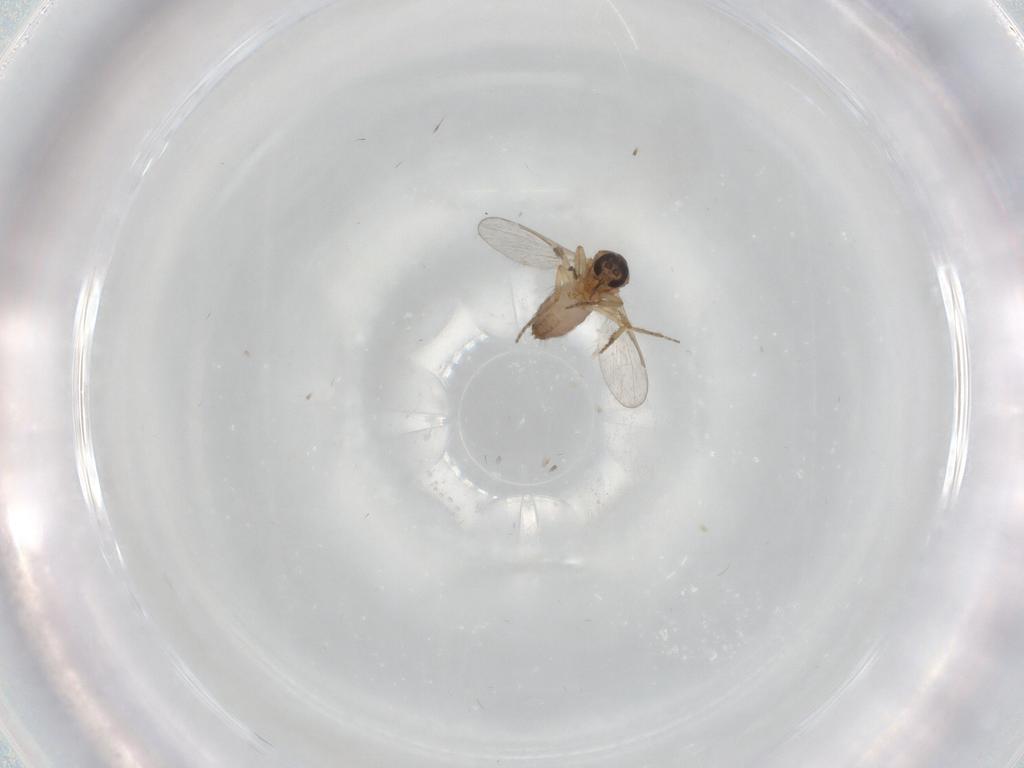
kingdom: Animalia
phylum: Arthropoda
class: Insecta
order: Diptera
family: Ceratopogonidae
